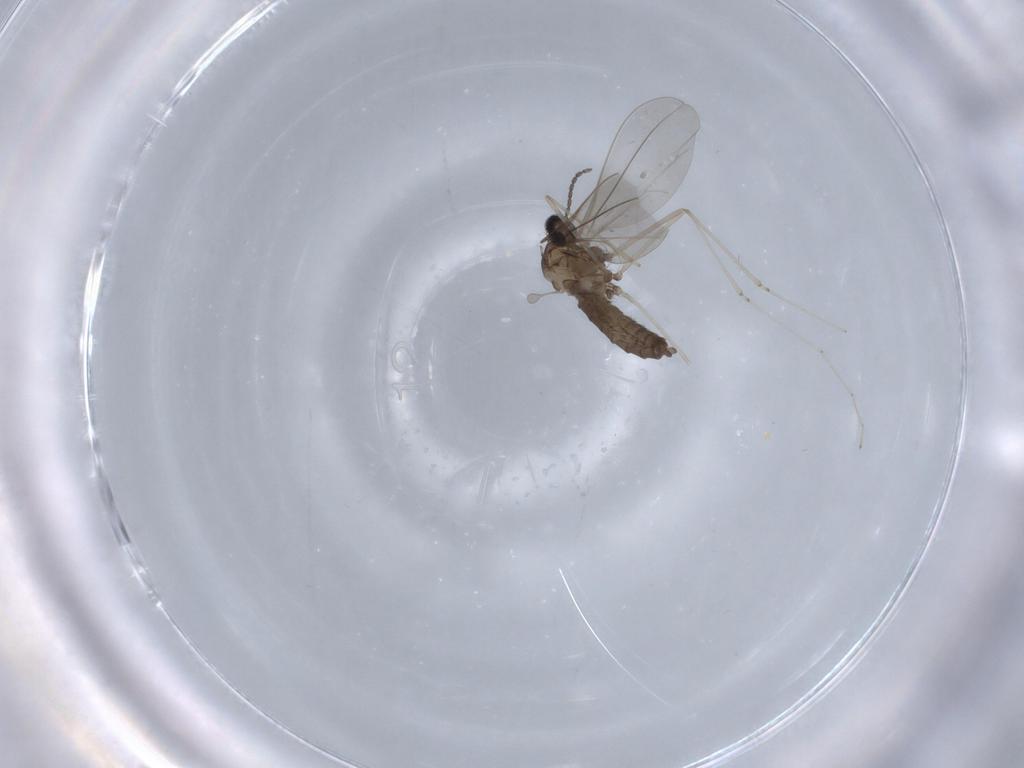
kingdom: Animalia
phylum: Arthropoda
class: Insecta
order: Diptera
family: Cecidomyiidae
